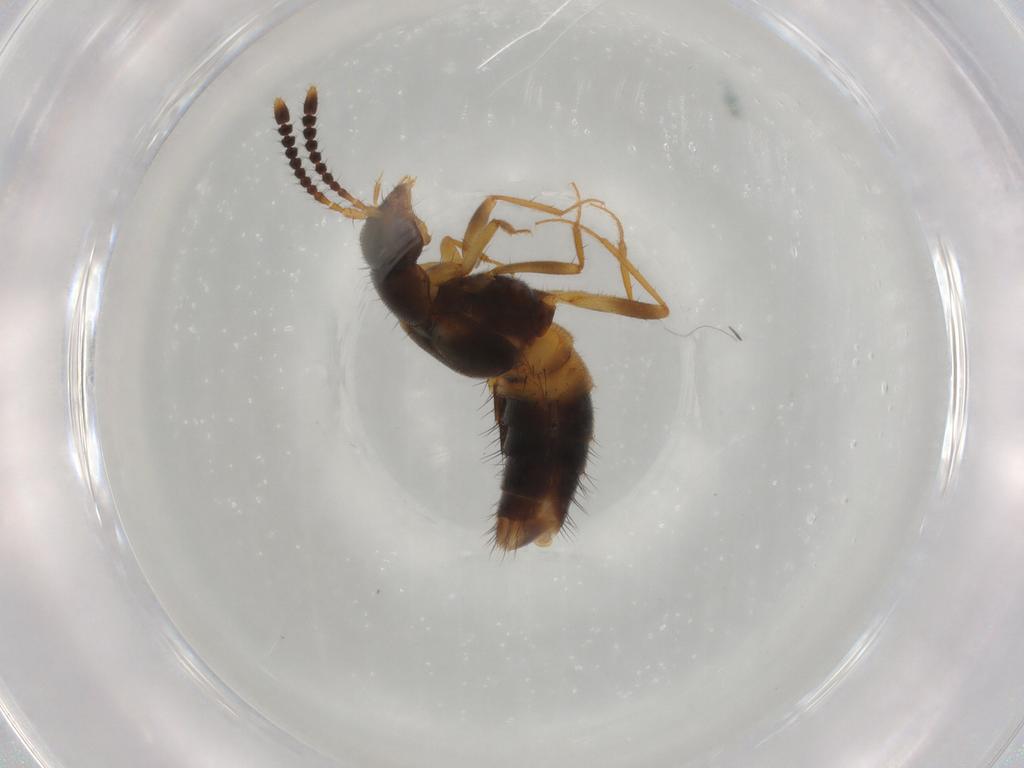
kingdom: Animalia
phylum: Arthropoda
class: Insecta
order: Coleoptera
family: Staphylinidae
